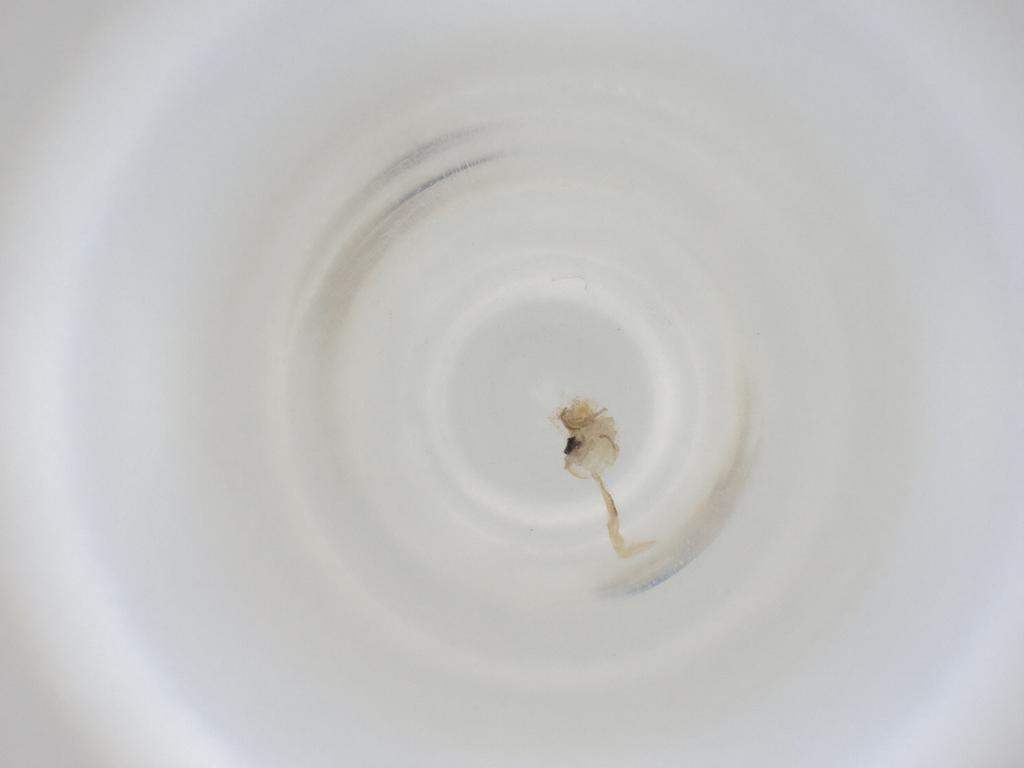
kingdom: Animalia
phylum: Arthropoda
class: Insecta
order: Diptera
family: Cecidomyiidae
